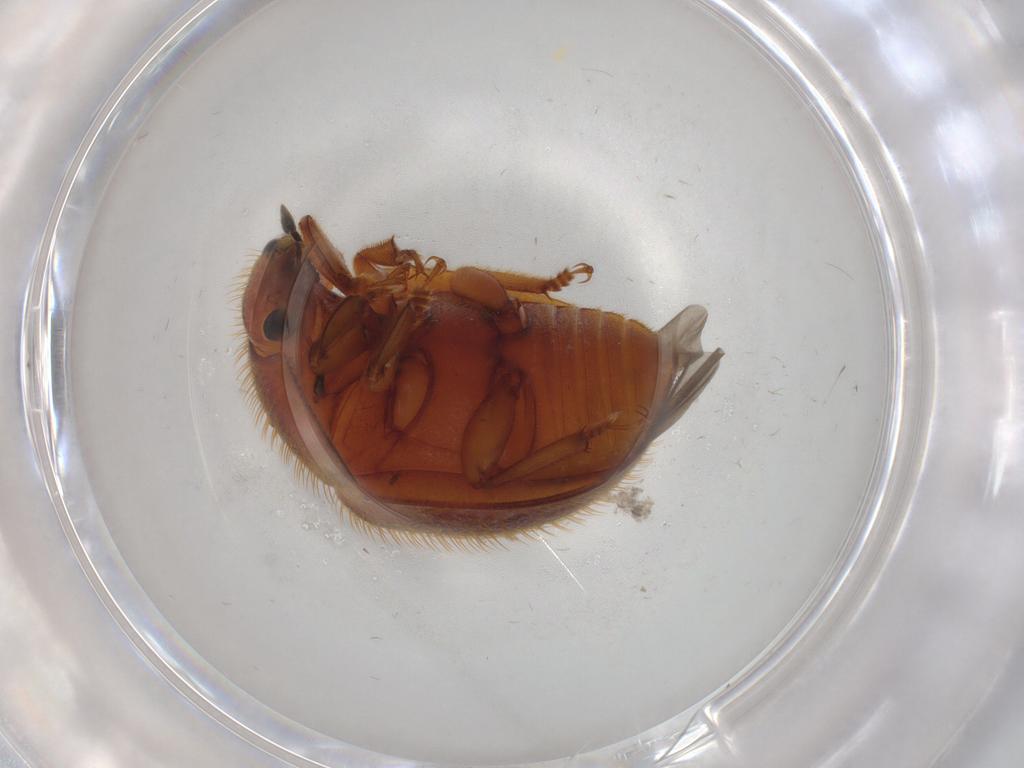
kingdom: Animalia
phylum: Arthropoda
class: Insecta
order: Coleoptera
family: Nitidulidae
